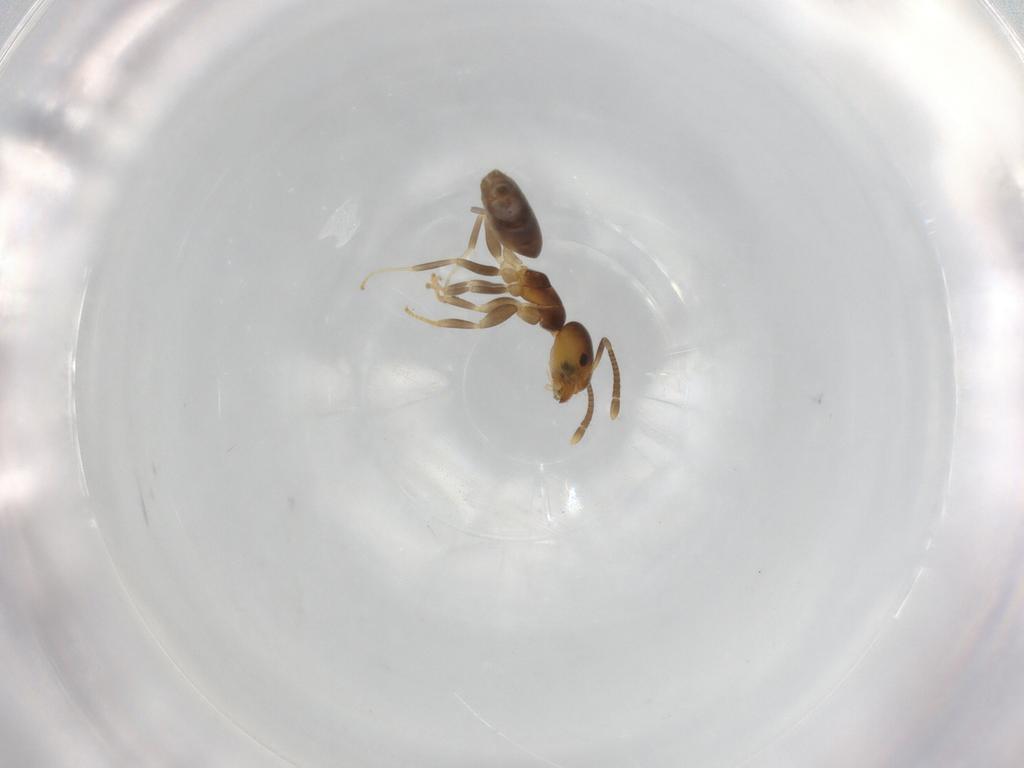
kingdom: Animalia
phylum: Arthropoda
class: Insecta
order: Hymenoptera
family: Formicidae
